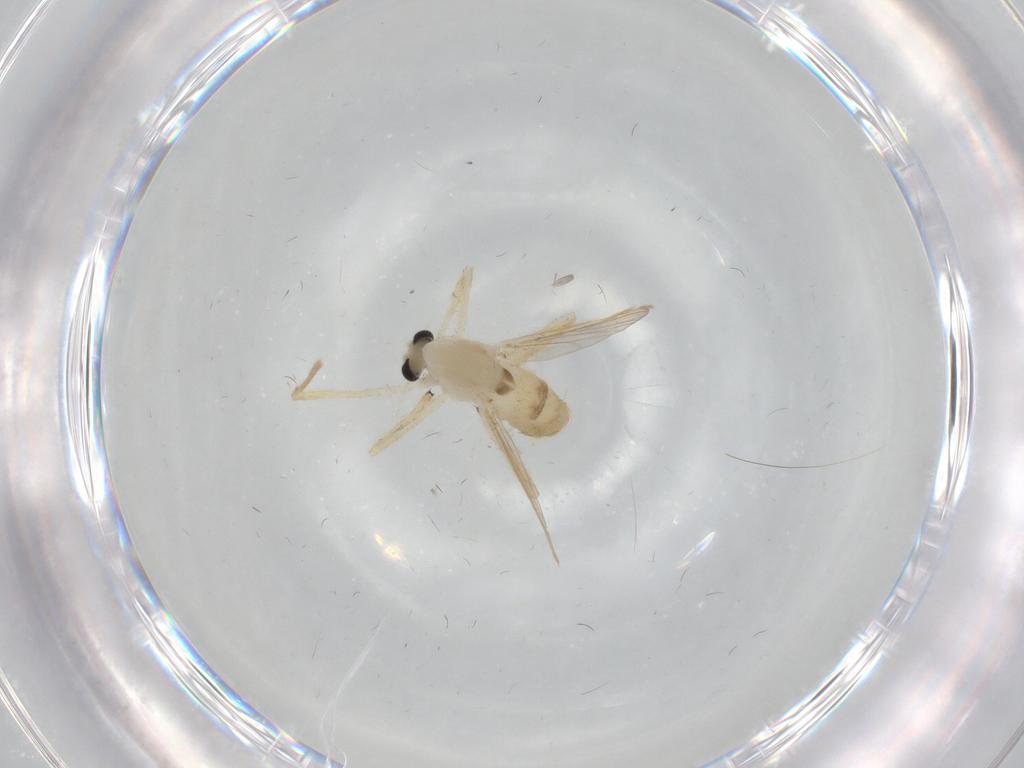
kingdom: Animalia
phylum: Arthropoda
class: Insecta
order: Diptera
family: Chironomidae
